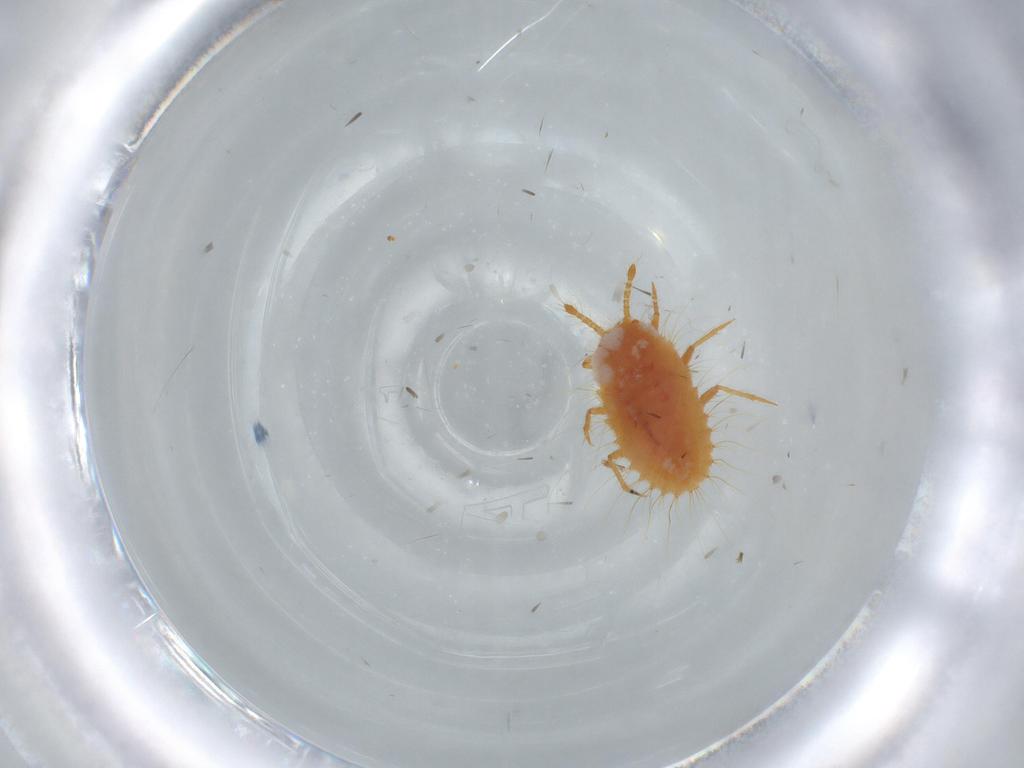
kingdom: Animalia
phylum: Arthropoda
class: Insecta
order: Hemiptera
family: Coccoidea_incertae_sedis
